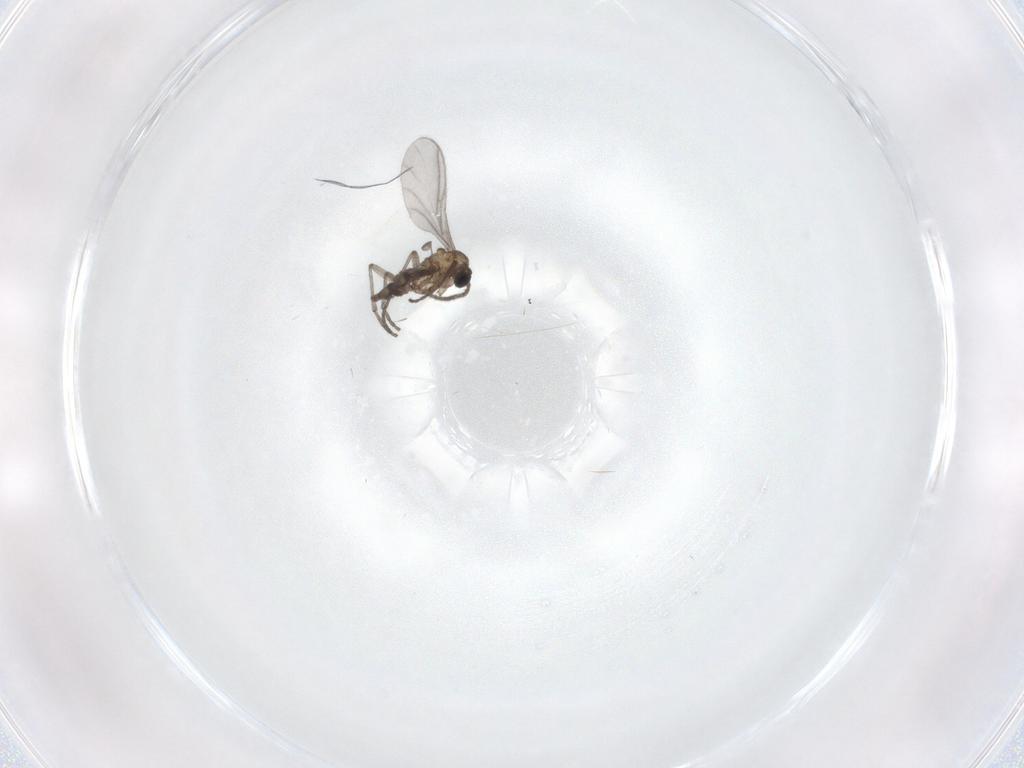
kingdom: Animalia
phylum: Arthropoda
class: Insecta
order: Diptera
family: Sciaridae
